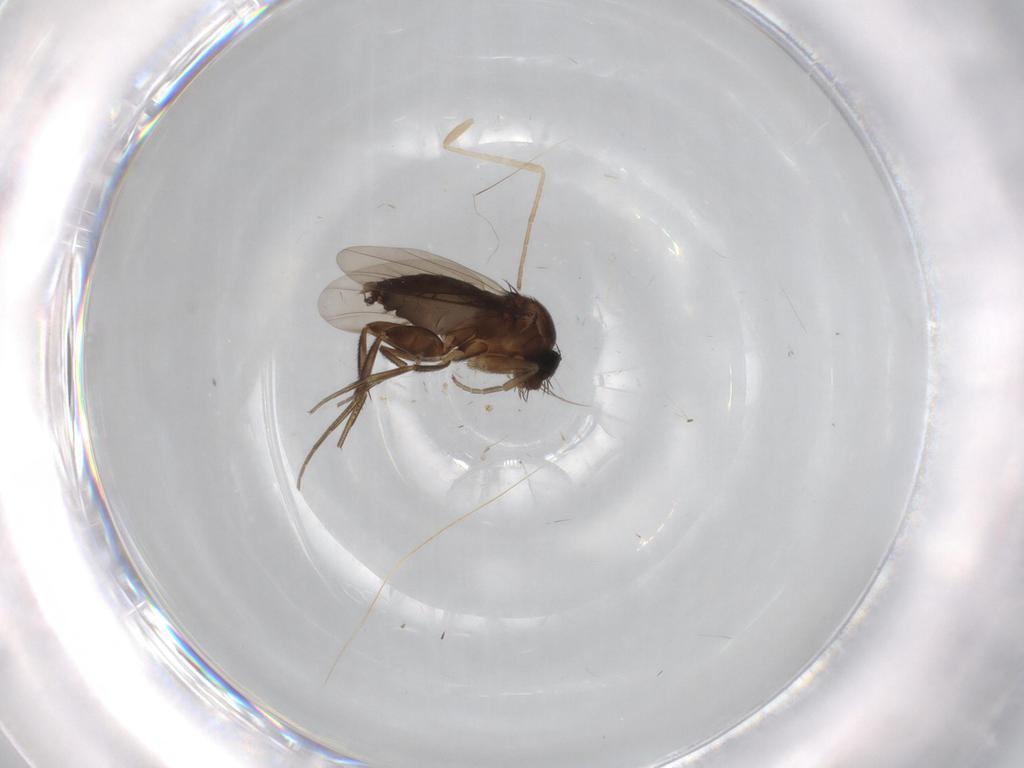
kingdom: Animalia
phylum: Arthropoda
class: Insecta
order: Diptera
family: Phoridae
